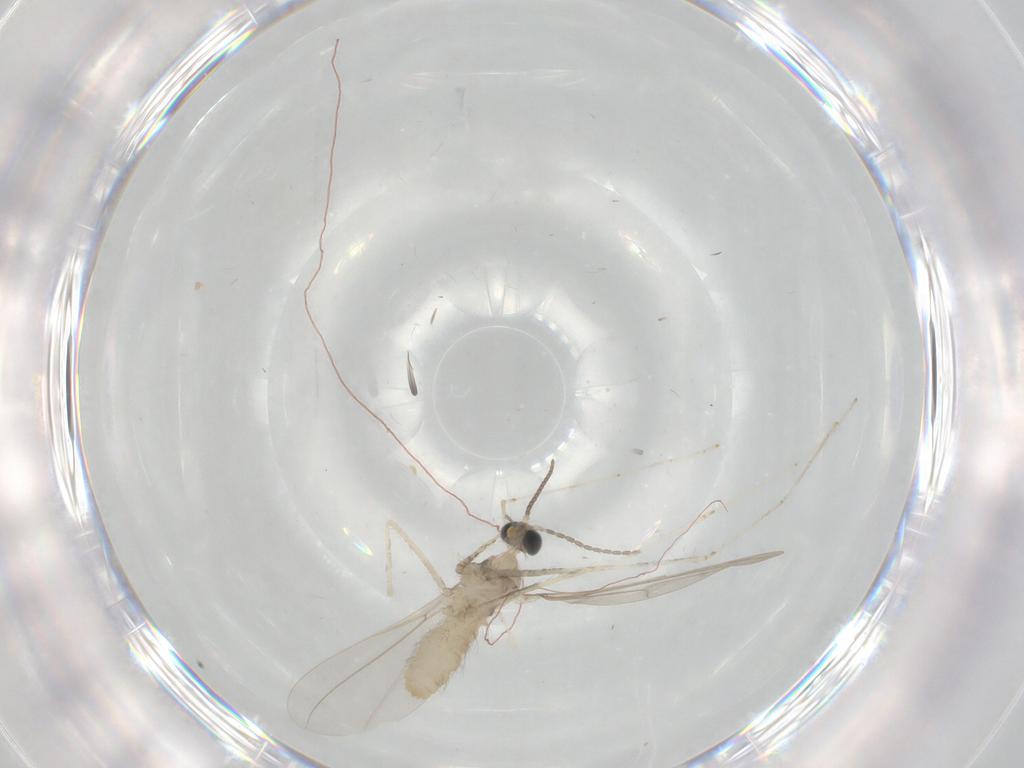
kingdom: Animalia
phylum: Arthropoda
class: Insecta
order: Diptera
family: Cecidomyiidae
